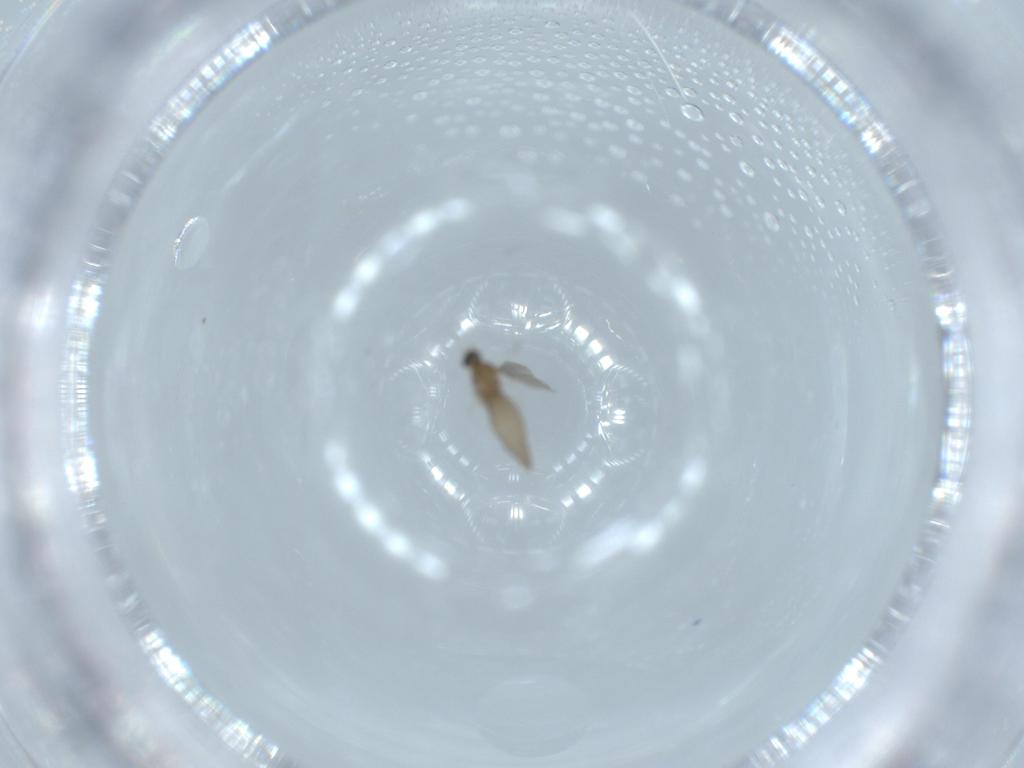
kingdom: Animalia
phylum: Arthropoda
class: Insecta
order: Diptera
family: Cecidomyiidae
